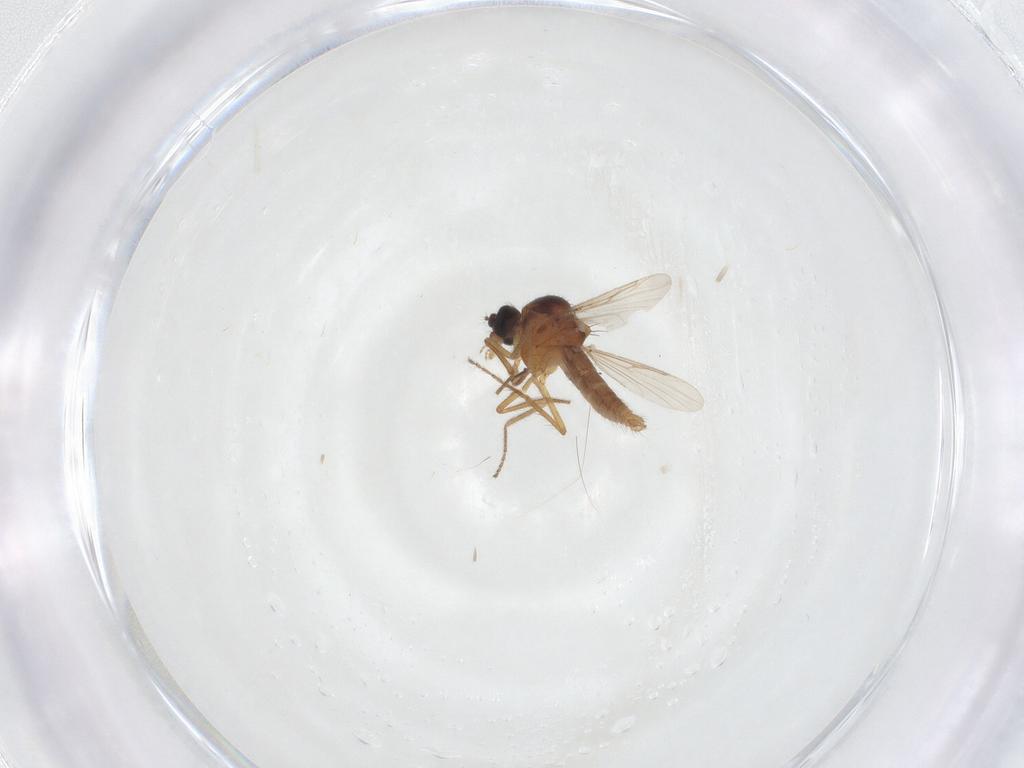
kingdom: Animalia
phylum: Arthropoda
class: Insecta
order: Diptera
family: Ceratopogonidae
